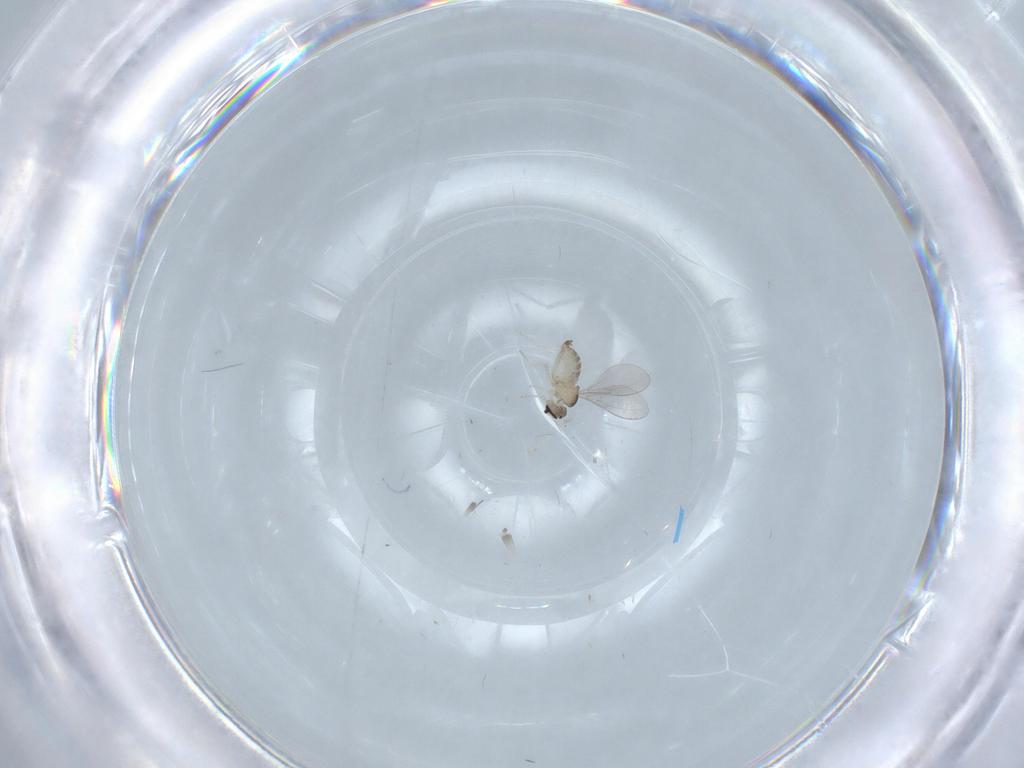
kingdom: Animalia
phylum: Arthropoda
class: Insecta
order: Diptera
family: Cecidomyiidae
